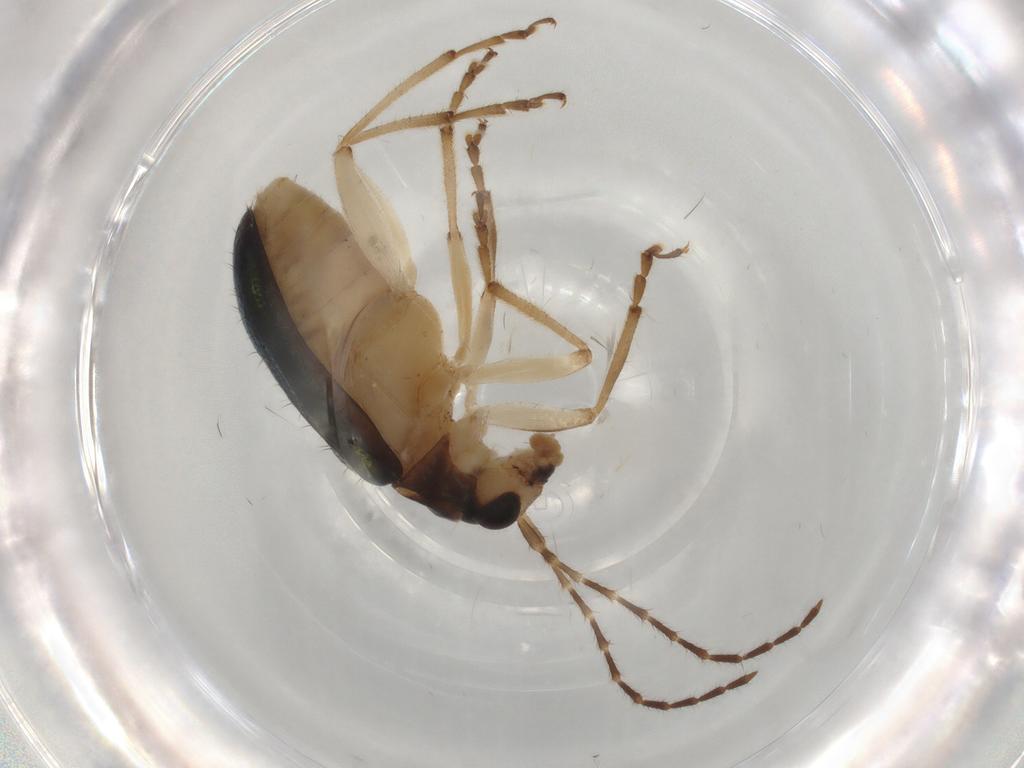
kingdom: Animalia
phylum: Arthropoda
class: Insecta
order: Coleoptera
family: Chrysomelidae
